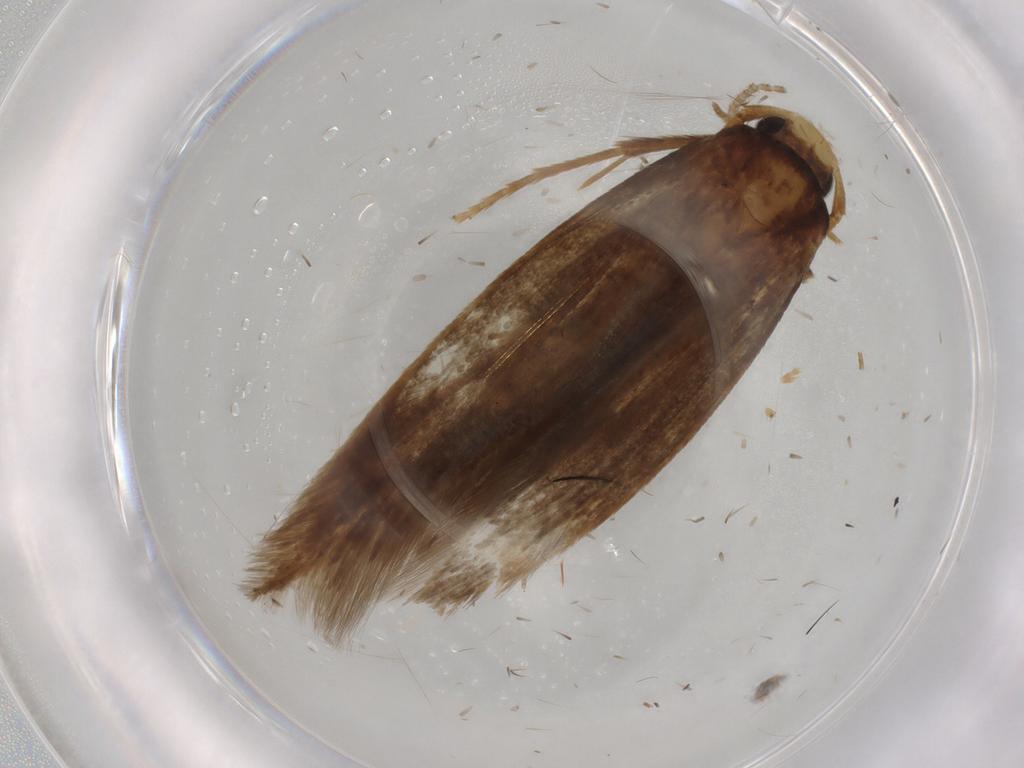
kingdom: Animalia
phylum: Arthropoda
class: Insecta
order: Lepidoptera
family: Tineidae
